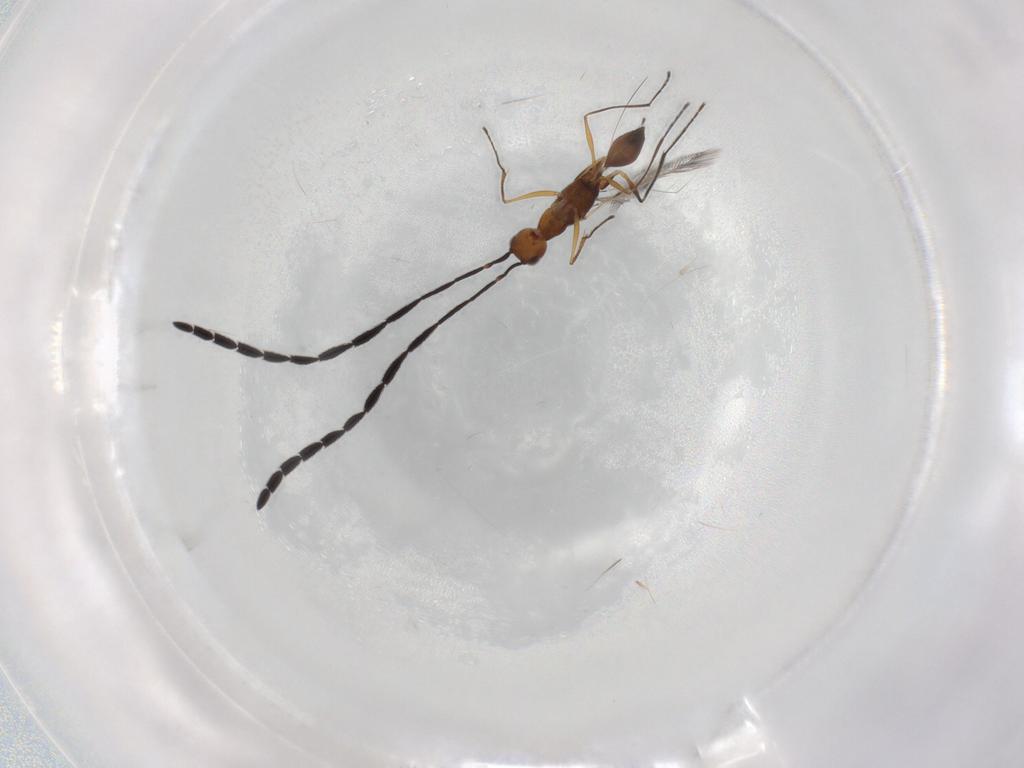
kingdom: Animalia
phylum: Arthropoda
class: Insecta
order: Hymenoptera
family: Mymaridae
